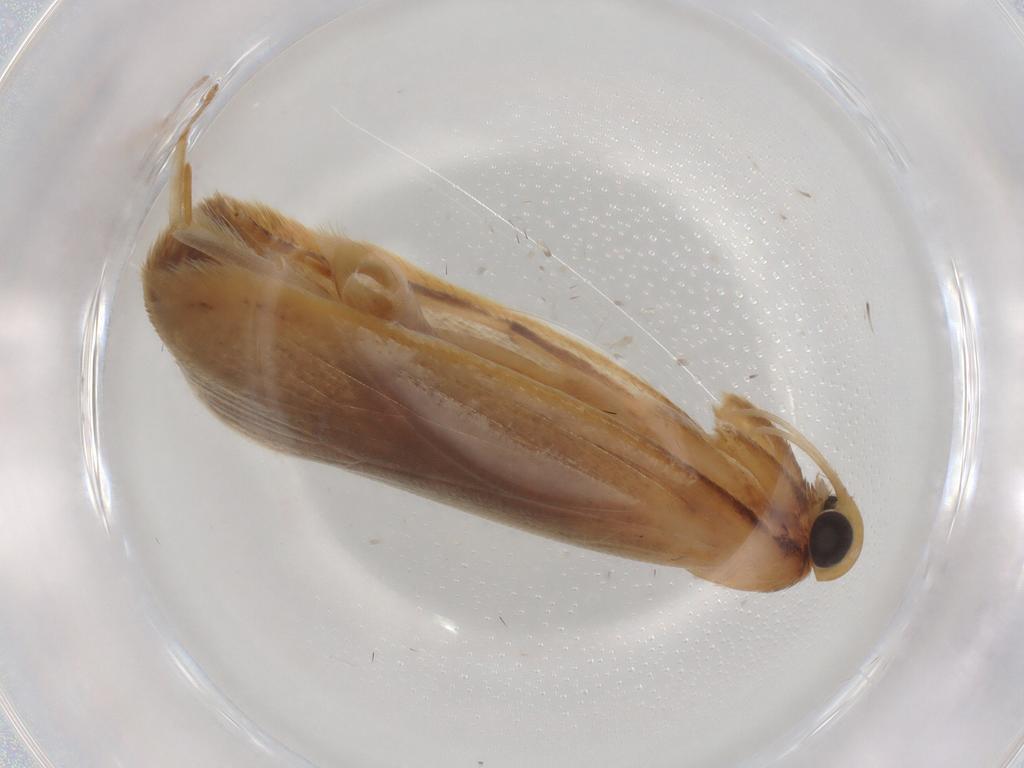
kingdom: Animalia
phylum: Arthropoda
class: Insecta
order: Lepidoptera
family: Autostichidae
